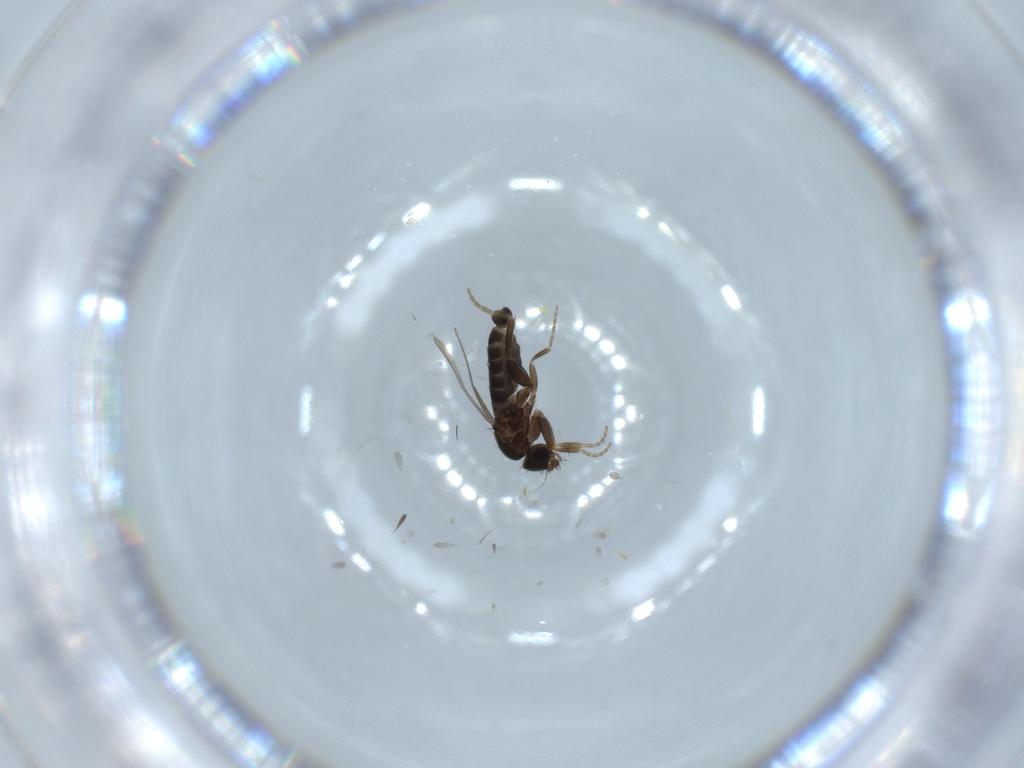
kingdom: Animalia
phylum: Arthropoda
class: Insecta
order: Diptera
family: Phoridae
